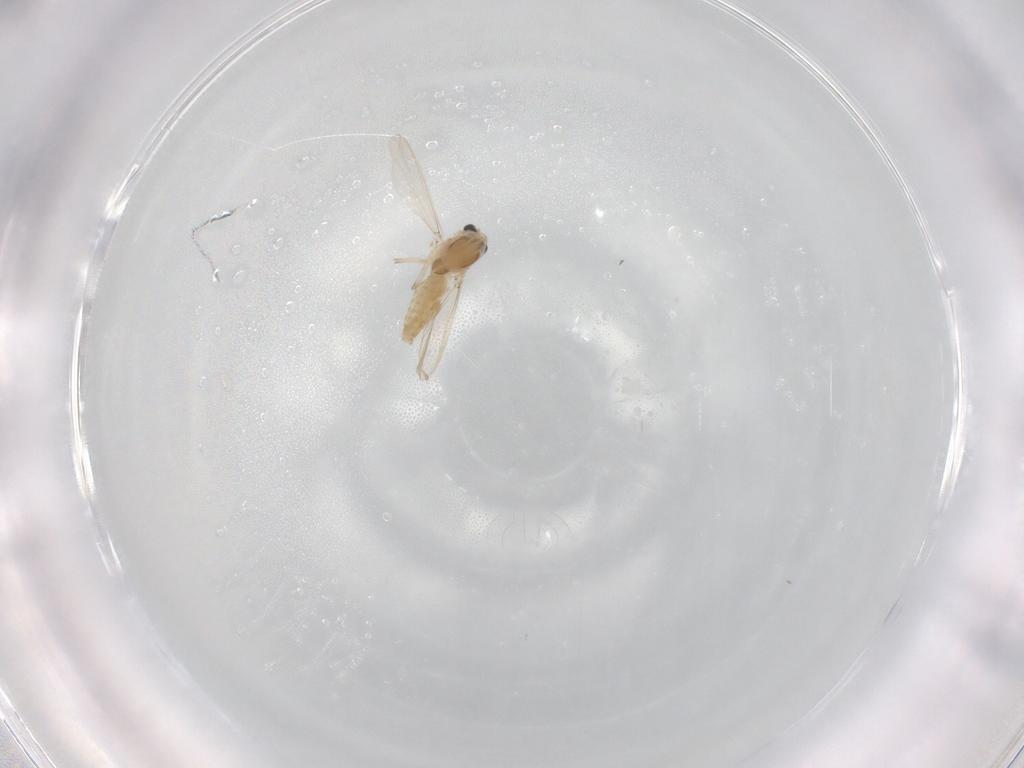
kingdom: Animalia
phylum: Arthropoda
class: Insecta
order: Diptera
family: Chironomidae
